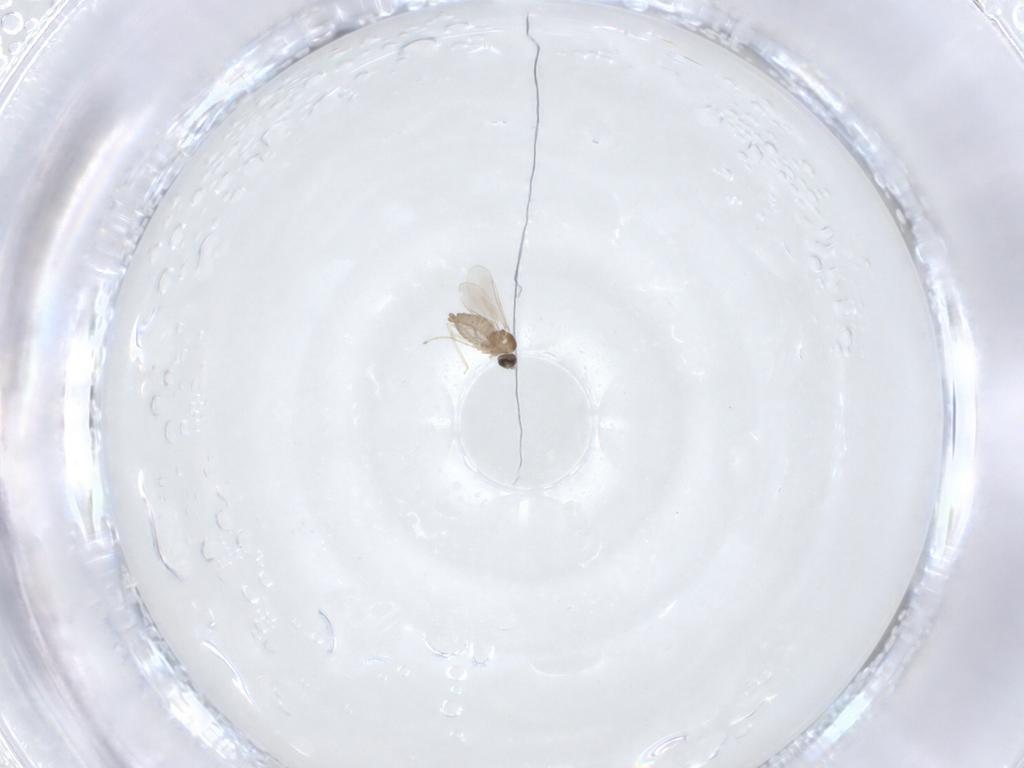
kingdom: Animalia
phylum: Arthropoda
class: Insecta
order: Diptera
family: Cecidomyiidae
